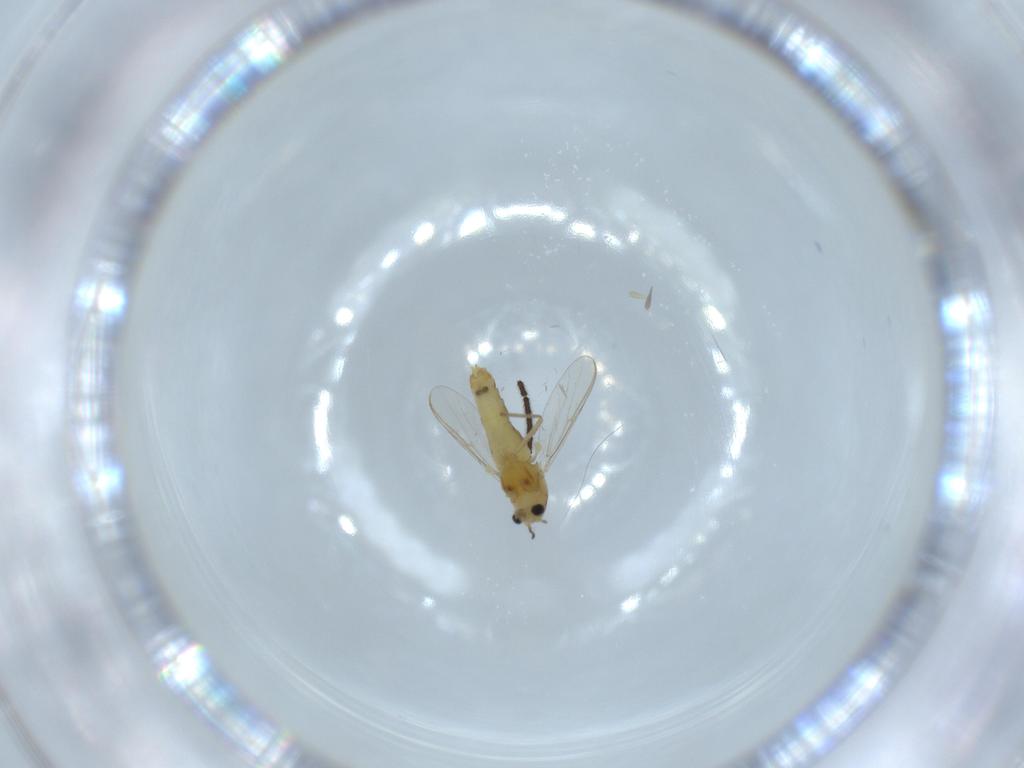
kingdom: Animalia
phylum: Arthropoda
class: Insecta
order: Diptera
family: Chironomidae
